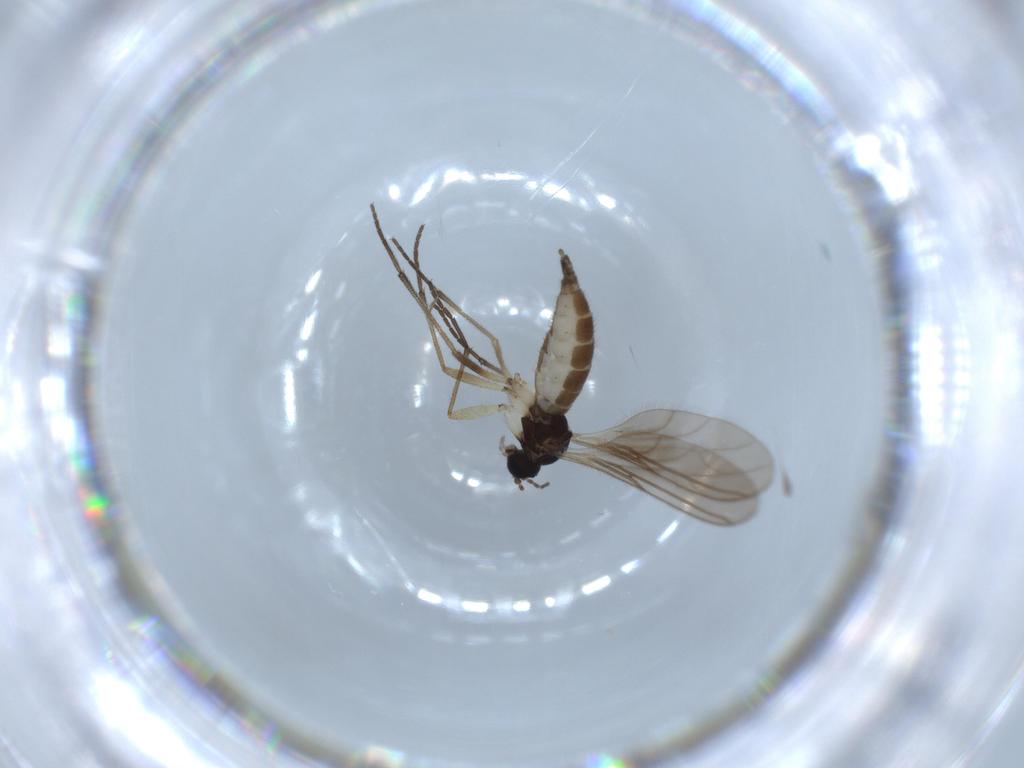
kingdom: Animalia
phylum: Arthropoda
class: Insecta
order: Diptera
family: Sciaridae
